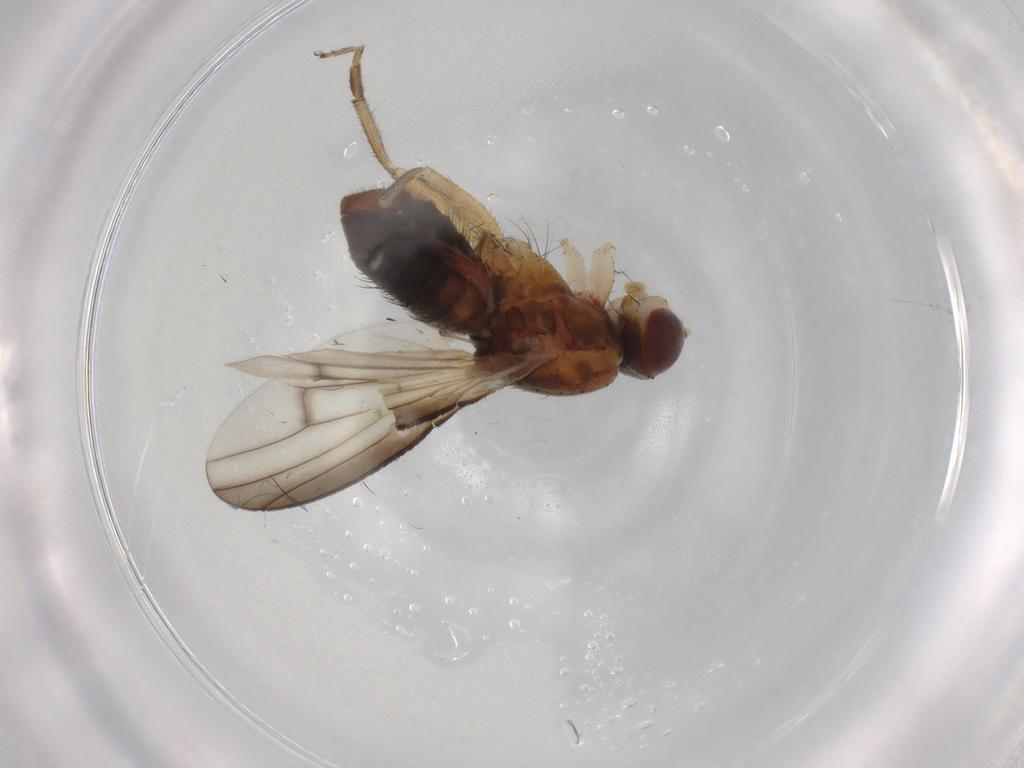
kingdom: Animalia
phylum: Arthropoda
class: Insecta
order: Diptera
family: Heleomyzidae
